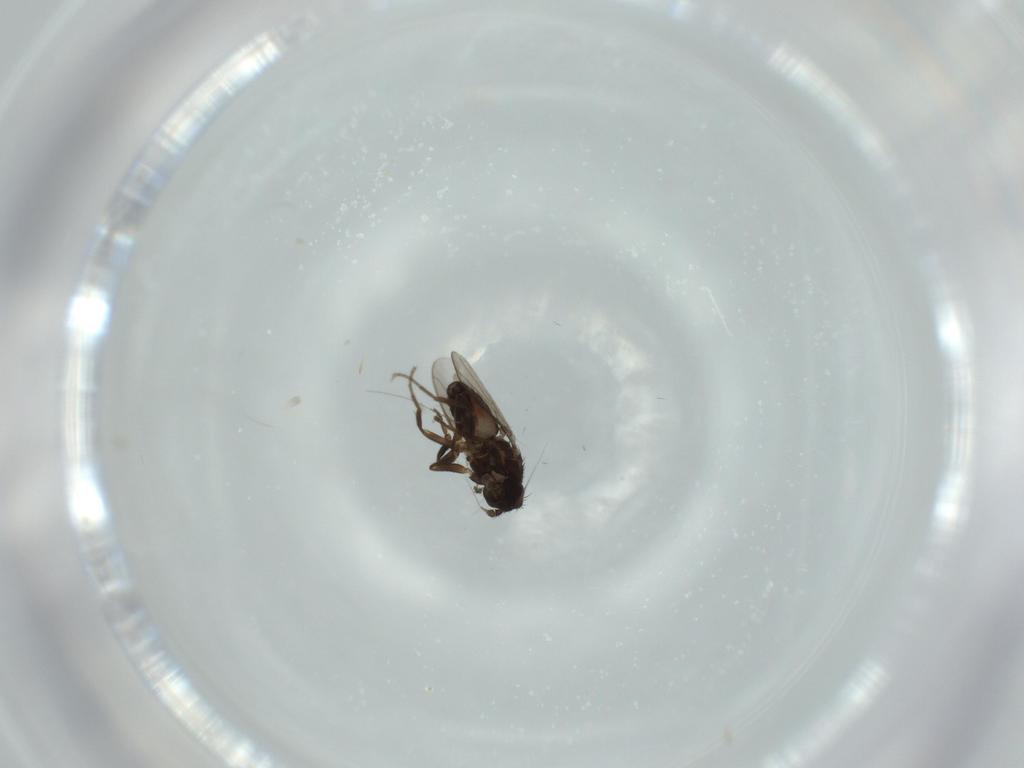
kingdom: Animalia
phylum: Arthropoda
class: Insecta
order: Diptera
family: Sphaeroceridae
